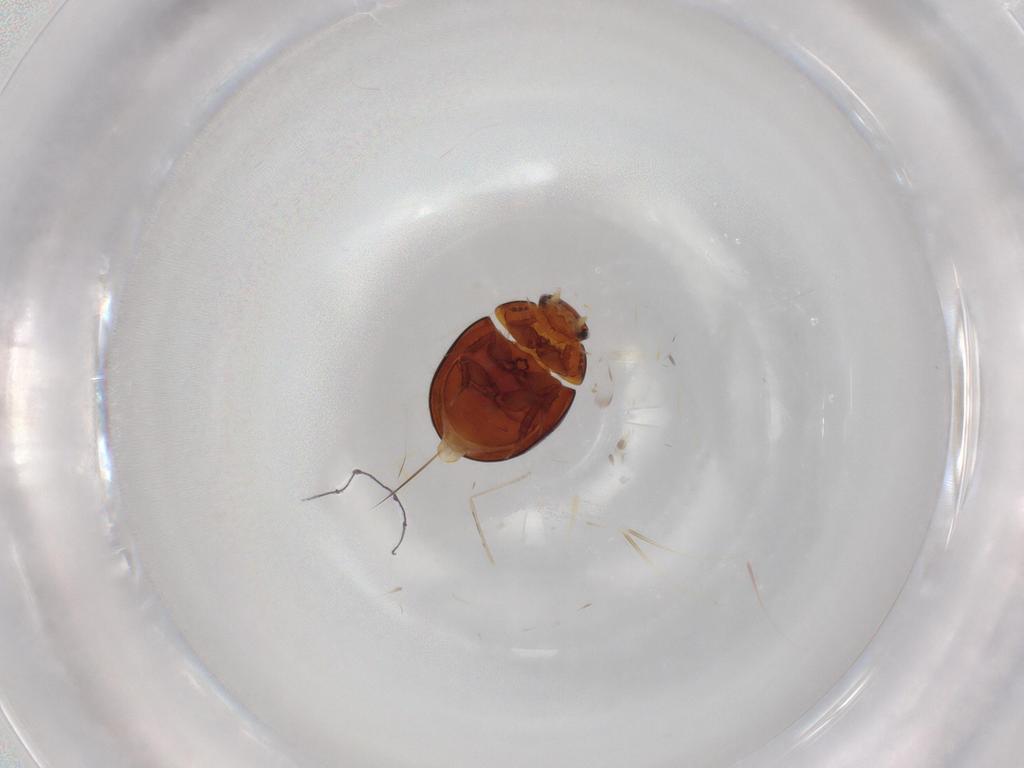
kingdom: Animalia
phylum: Arthropoda
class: Insecta
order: Coleoptera
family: Hydrophilidae
